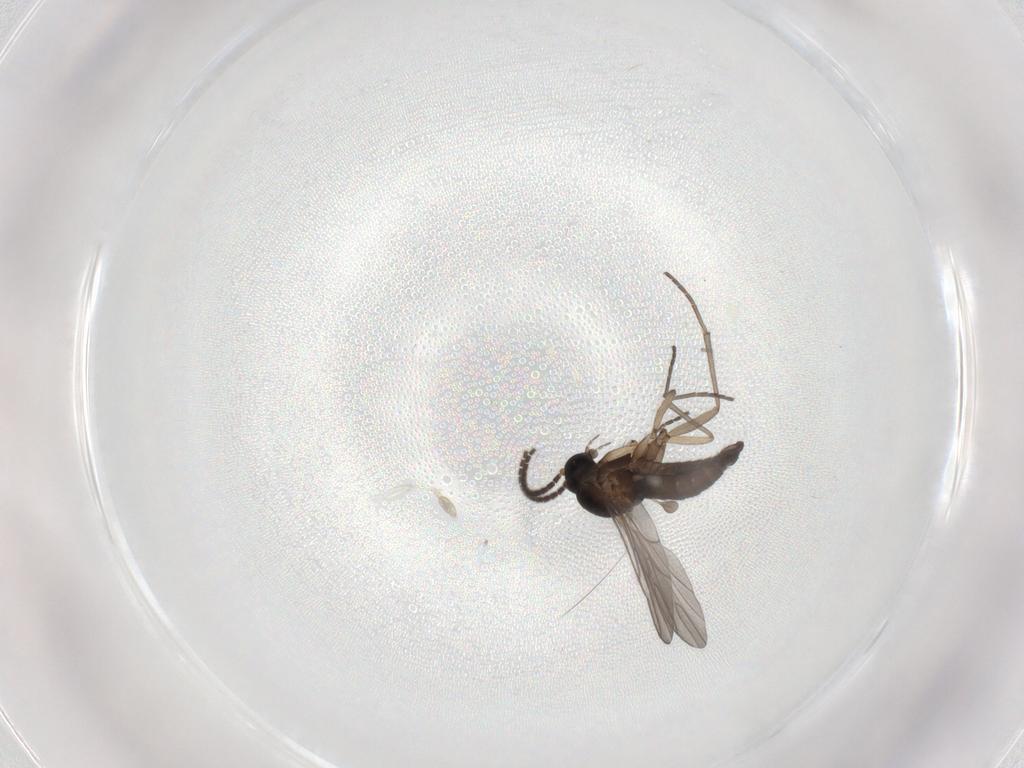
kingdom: Animalia
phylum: Arthropoda
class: Insecta
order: Diptera
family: Sciaridae
